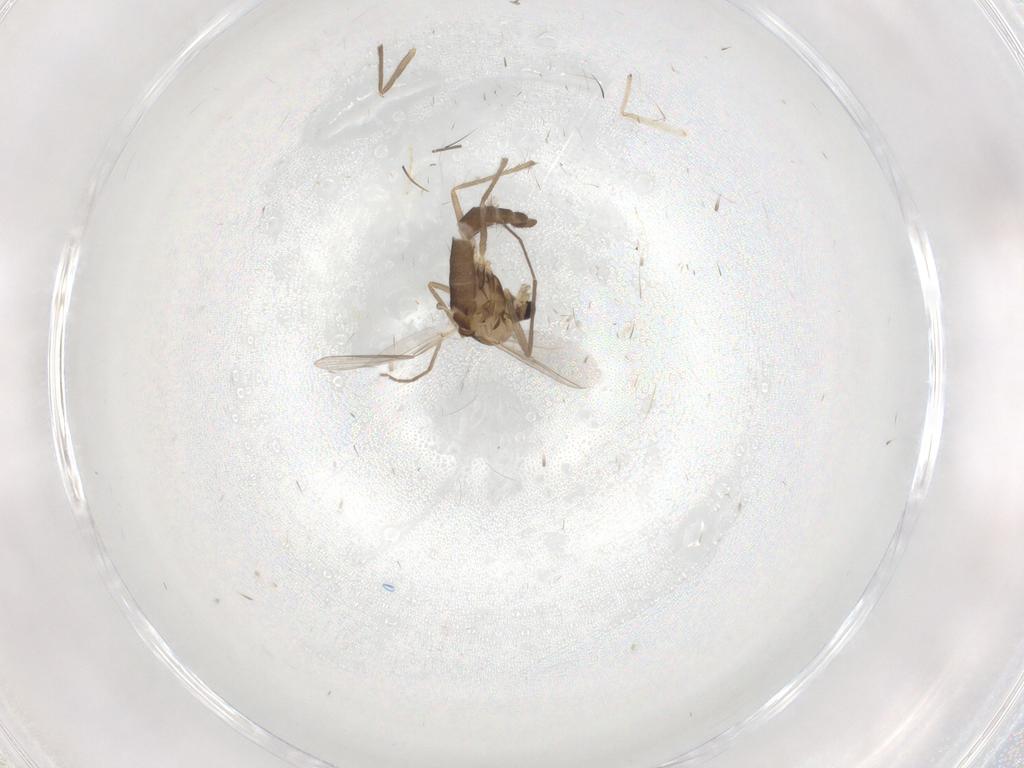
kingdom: Animalia
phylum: Arthropoda
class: Insecta
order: Diptera
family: Chironomidae
